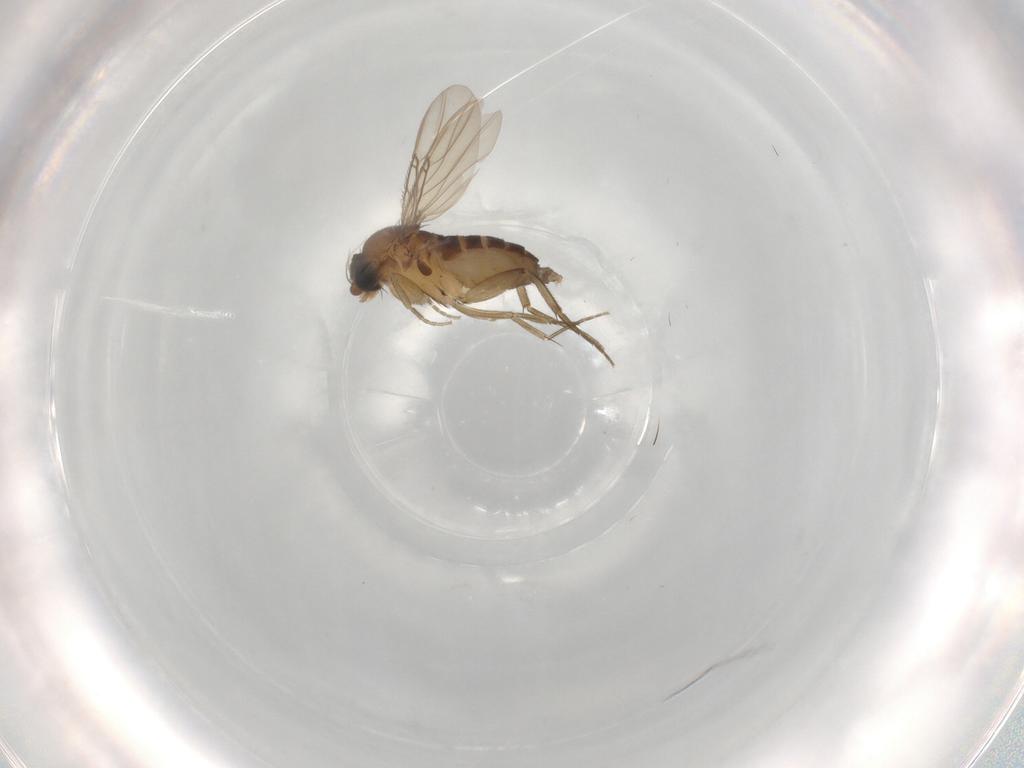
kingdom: Animalia
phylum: Arthropoda
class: Insecta
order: Diptera
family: Phoridae
